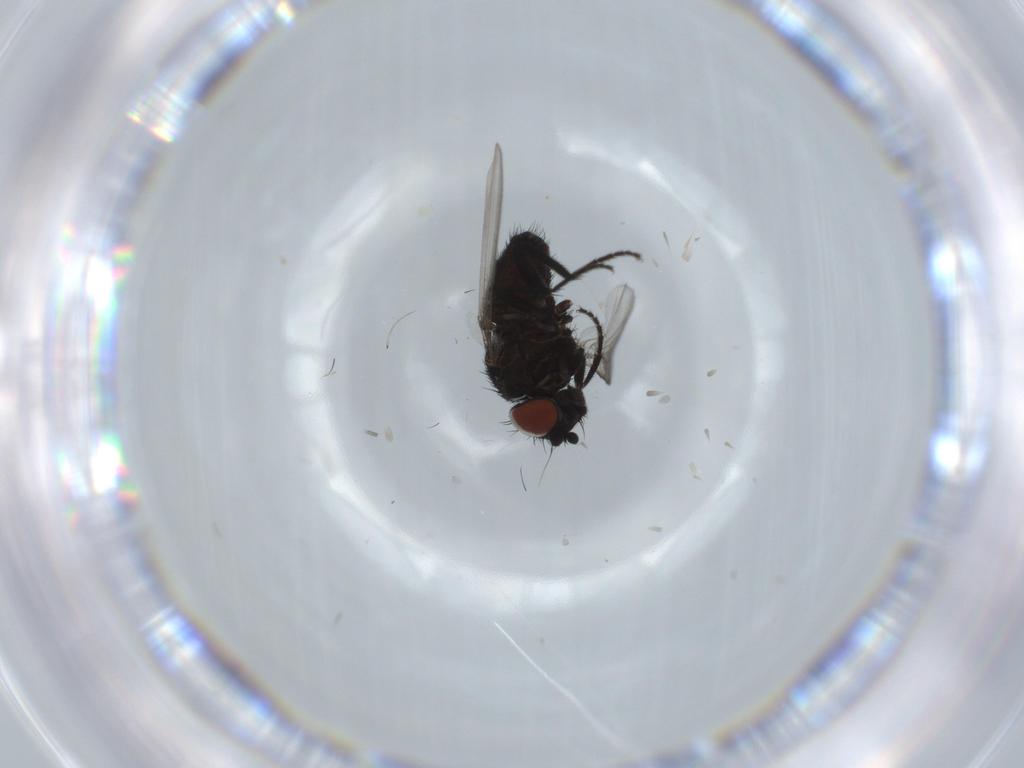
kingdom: Animalia
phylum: Arthropoda
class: Insecta
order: Diptera
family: Milichiidae
